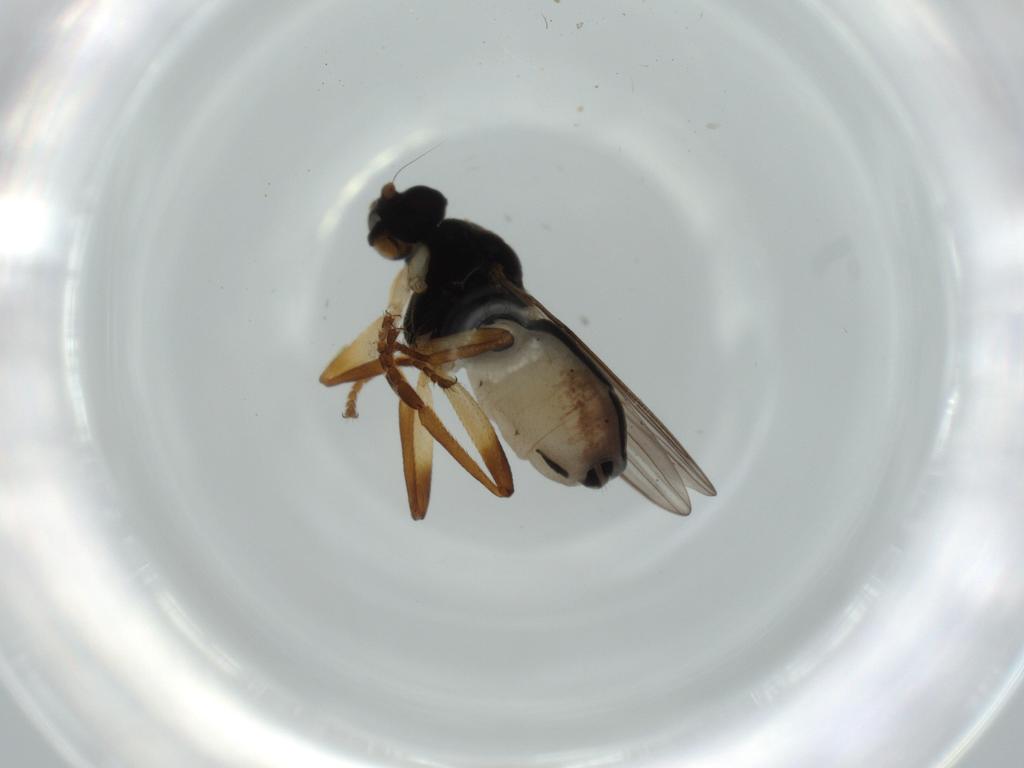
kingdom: Animalia
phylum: Arthropoda
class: Insecta
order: Diptera
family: Sphaeroceridae
